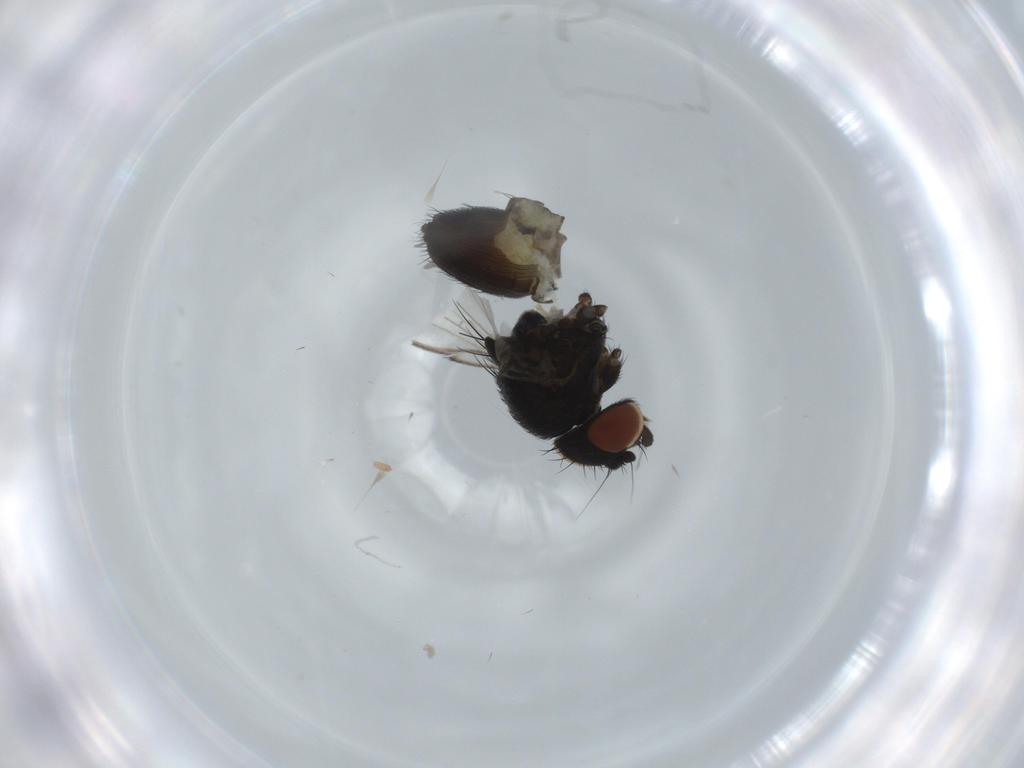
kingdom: Animalia
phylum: Arthropoda
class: Insecta
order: Diptera
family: Milichiidae
